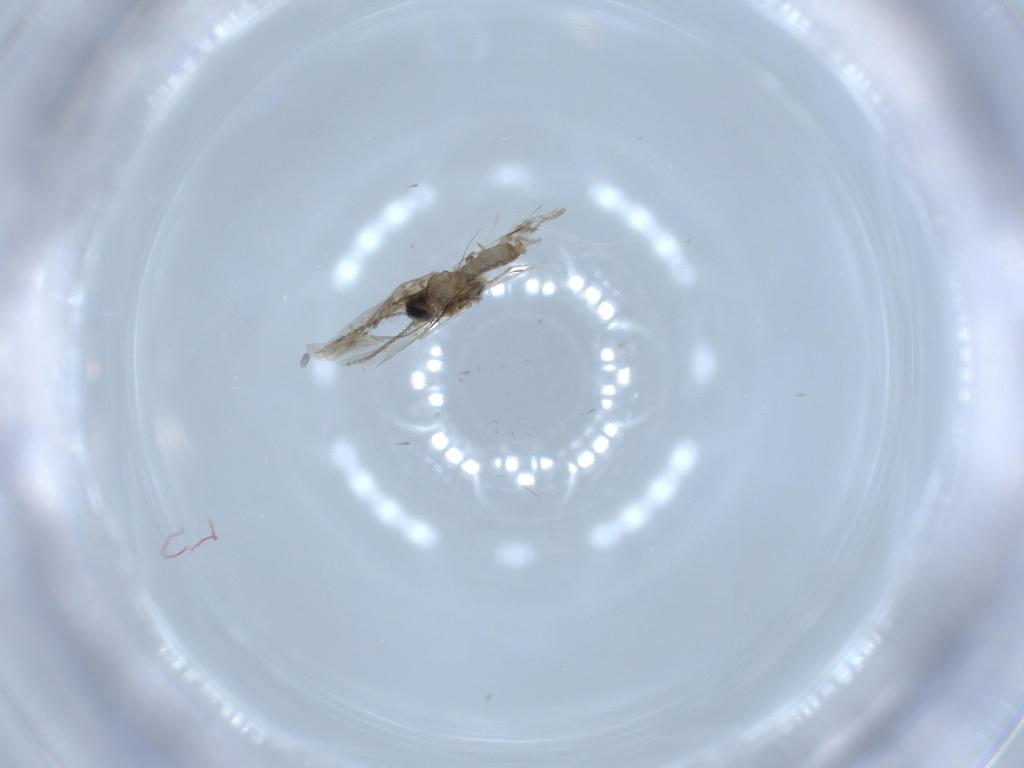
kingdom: Animalia
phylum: Arthropoda
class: Insecta
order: Diptera
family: Cecidomyiidae
